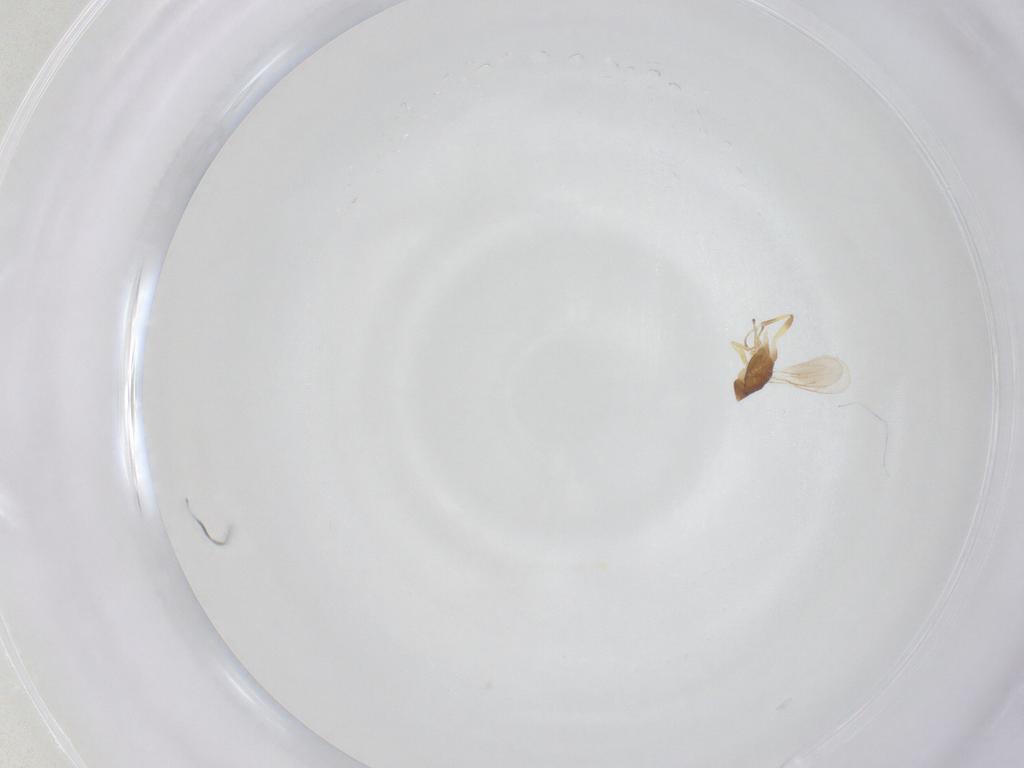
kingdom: Animalia
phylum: Arthropoda
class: Insecta
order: Hymenoptera
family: Eupelmidae
